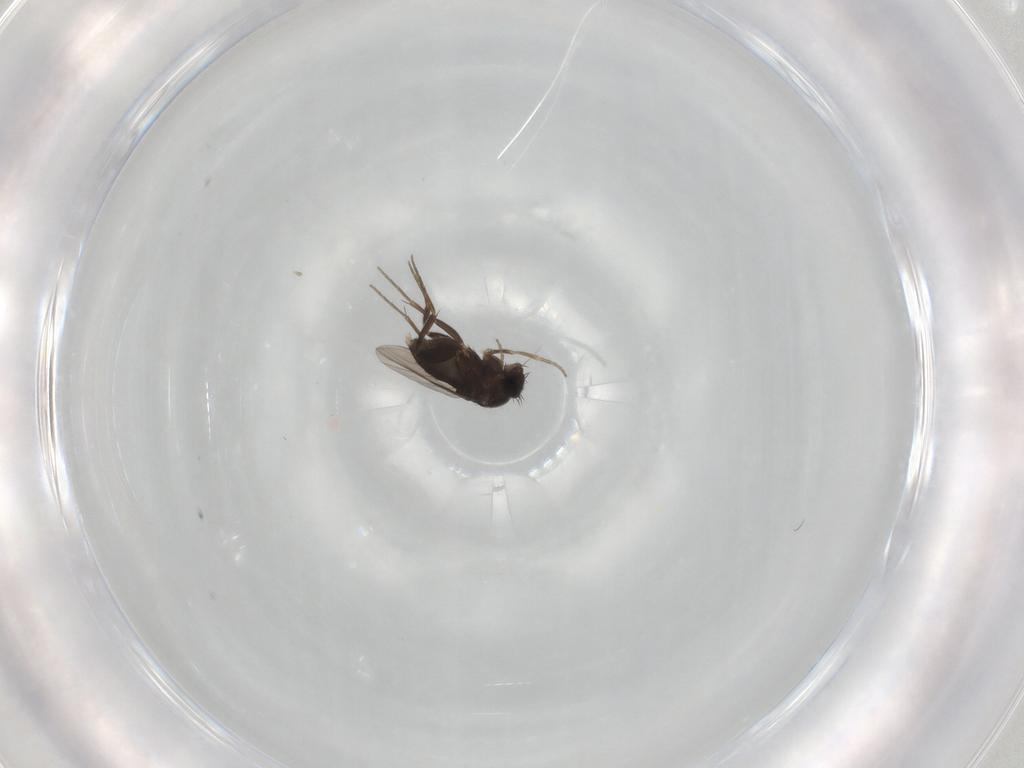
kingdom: Animalia
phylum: Arthropoda
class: Insecta
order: Diptera
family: Phoridae
